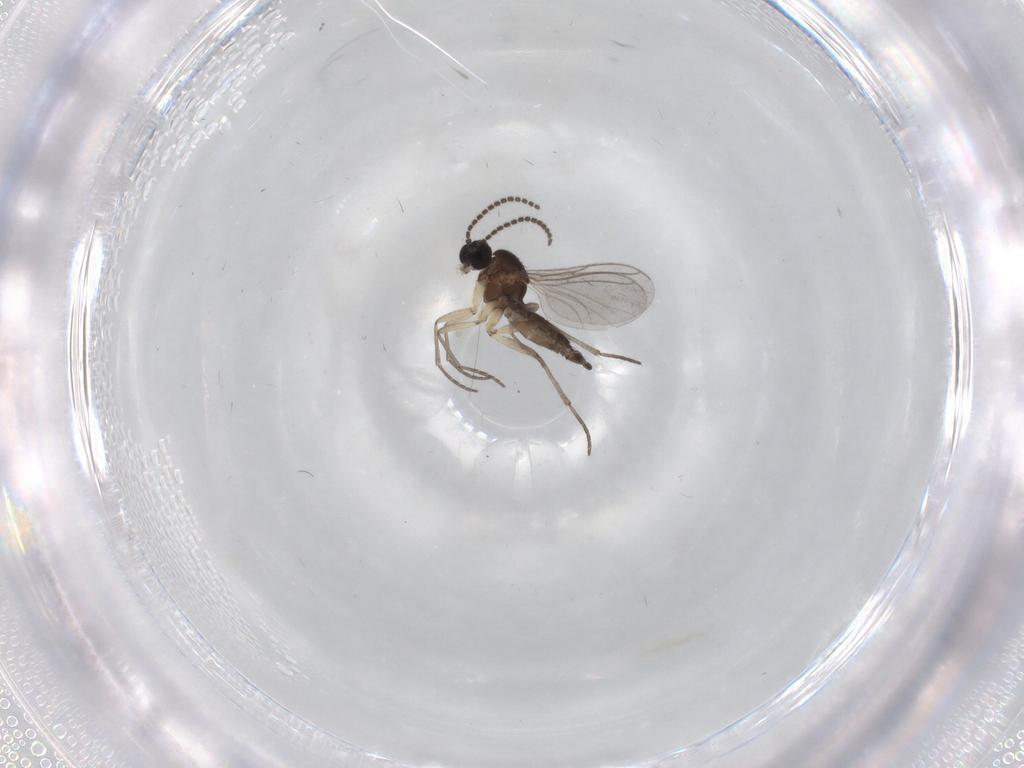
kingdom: Animalia
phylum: Arthropoda
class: Insecta
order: Diptera
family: Sciaridae
